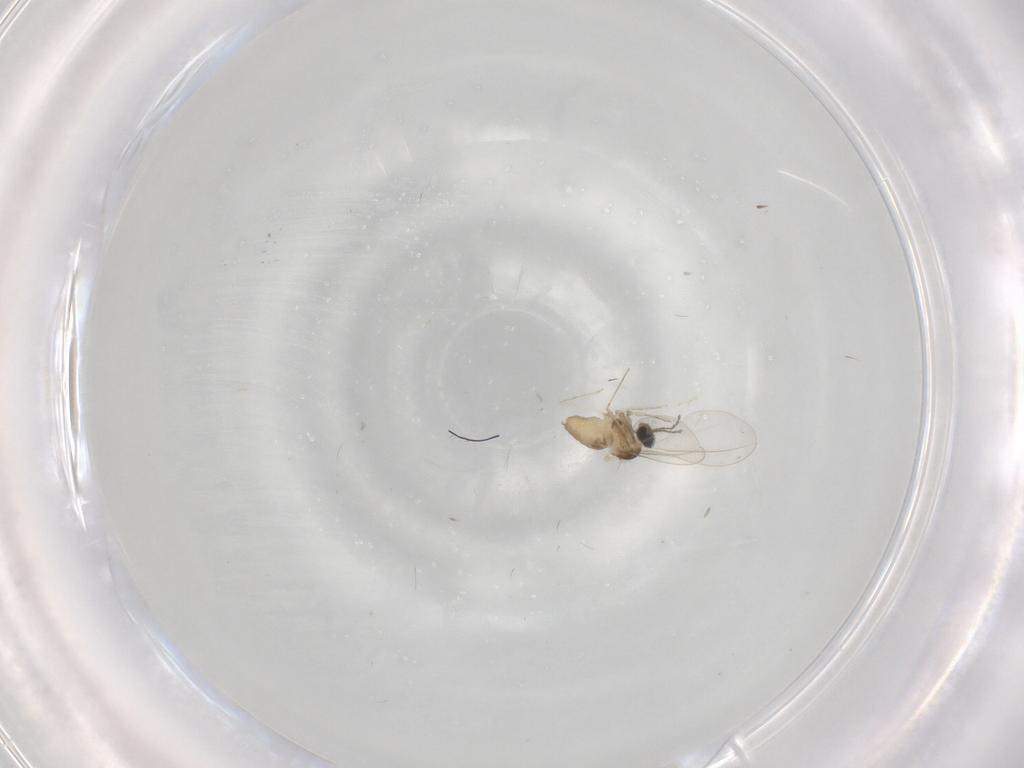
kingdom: Animalia
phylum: Arthropoda
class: Insecta
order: Diptera
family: Cecidomyiidae
